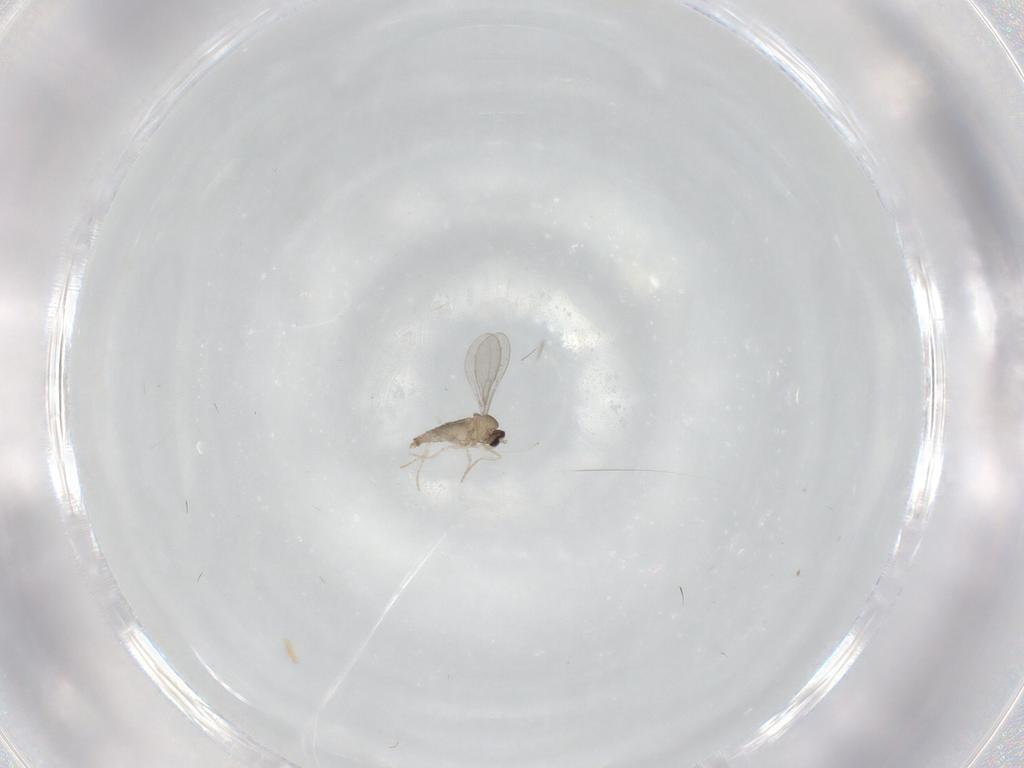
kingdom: Animalia
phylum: Arthropoda
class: Insecta
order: Diptera
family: Cecidomyiidae
